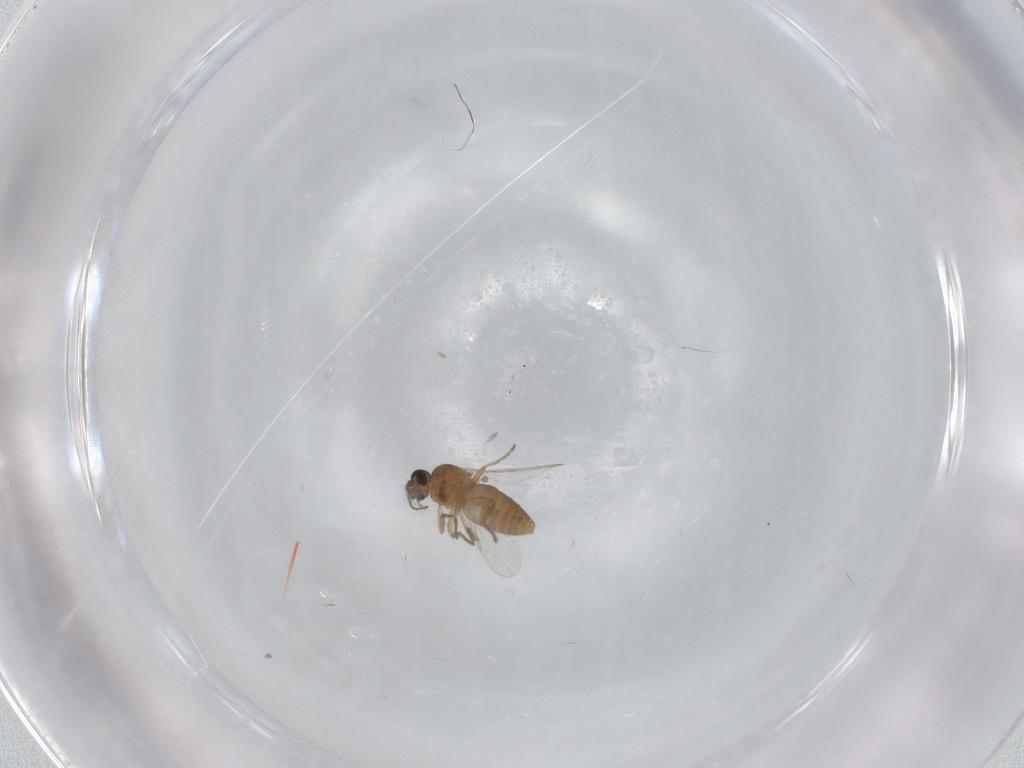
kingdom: Animalia
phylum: Arthropoda
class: Insecta
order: Diptera
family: Ceratopogonidae
